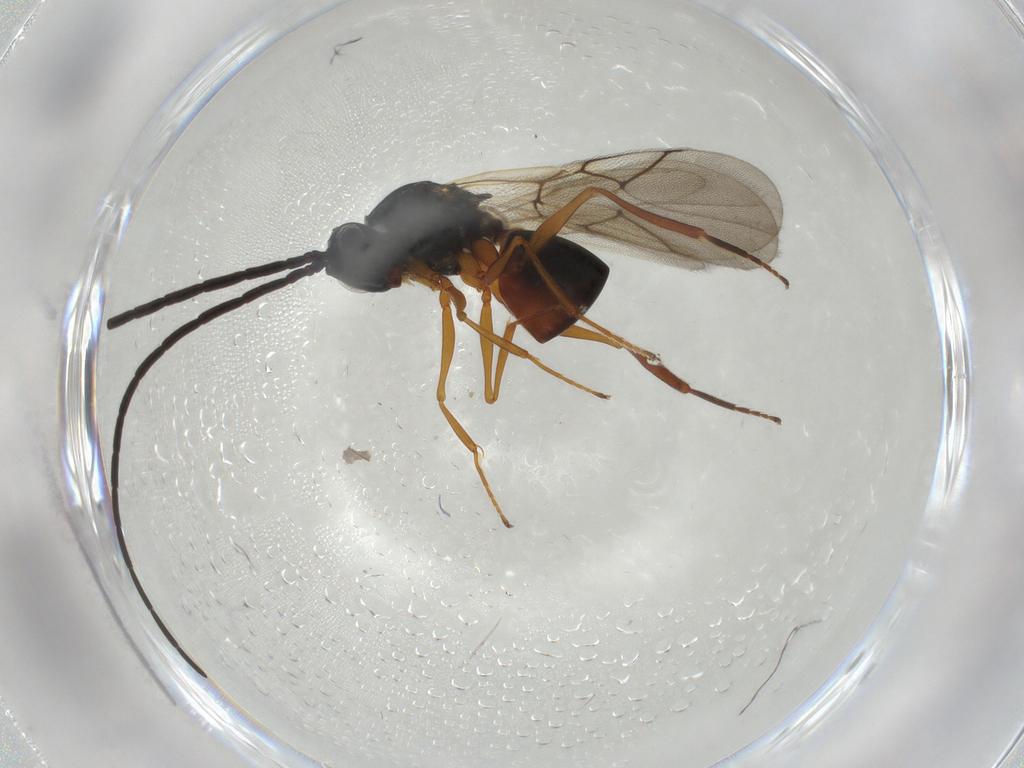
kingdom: Animalia
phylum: Arthropoda
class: Insecta
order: Hymenoptera
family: Figitidae
